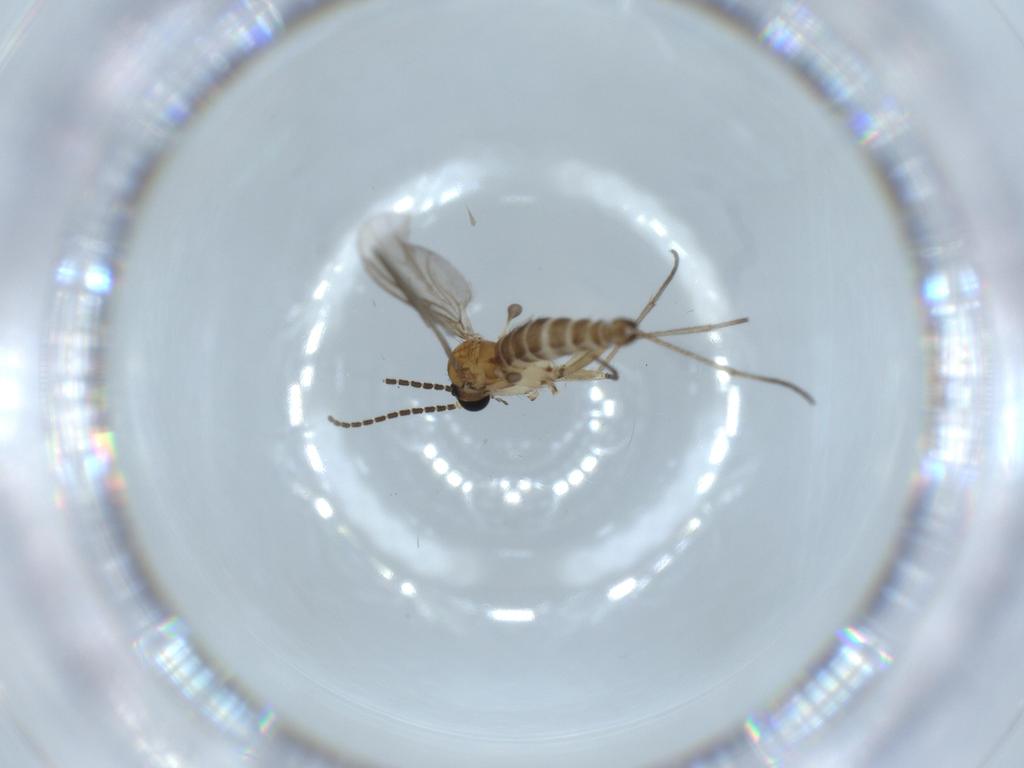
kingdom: Animalia
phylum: Arthropoda
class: Insecta
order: Diptera
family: Sciaridae
